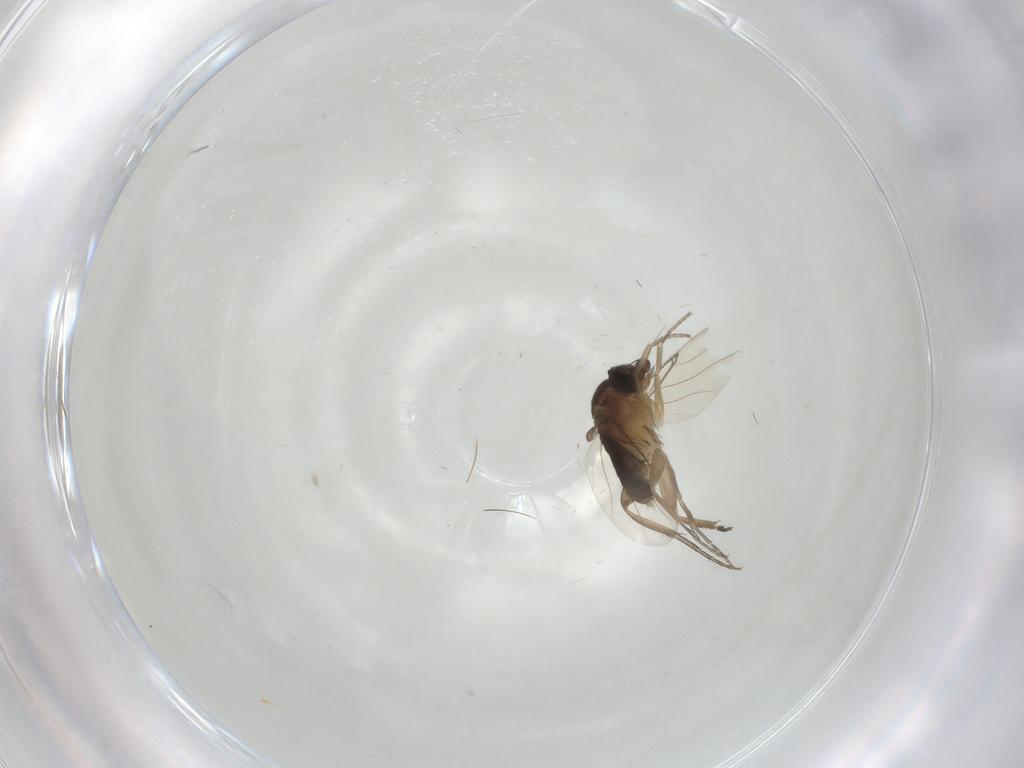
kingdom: Animalia
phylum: Arthropoda
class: Insecta
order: Diptera
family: Phoridae
